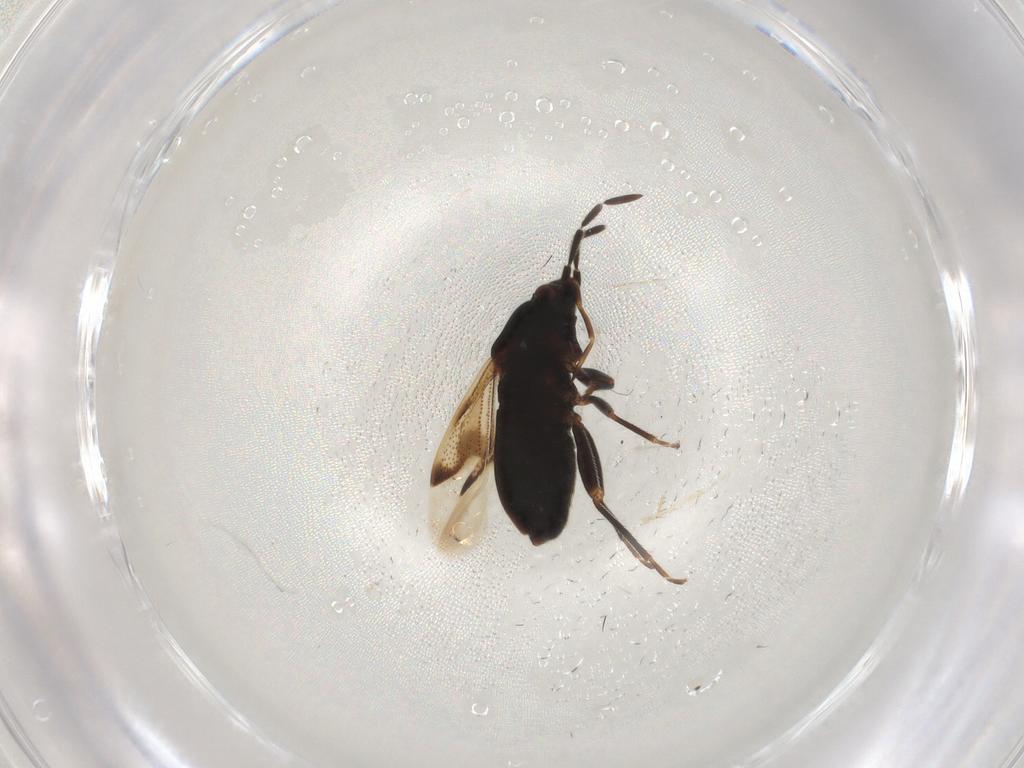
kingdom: Animalia
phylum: Arthropoda
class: Insecta
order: Hemiptera
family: Rhyparochromidae
